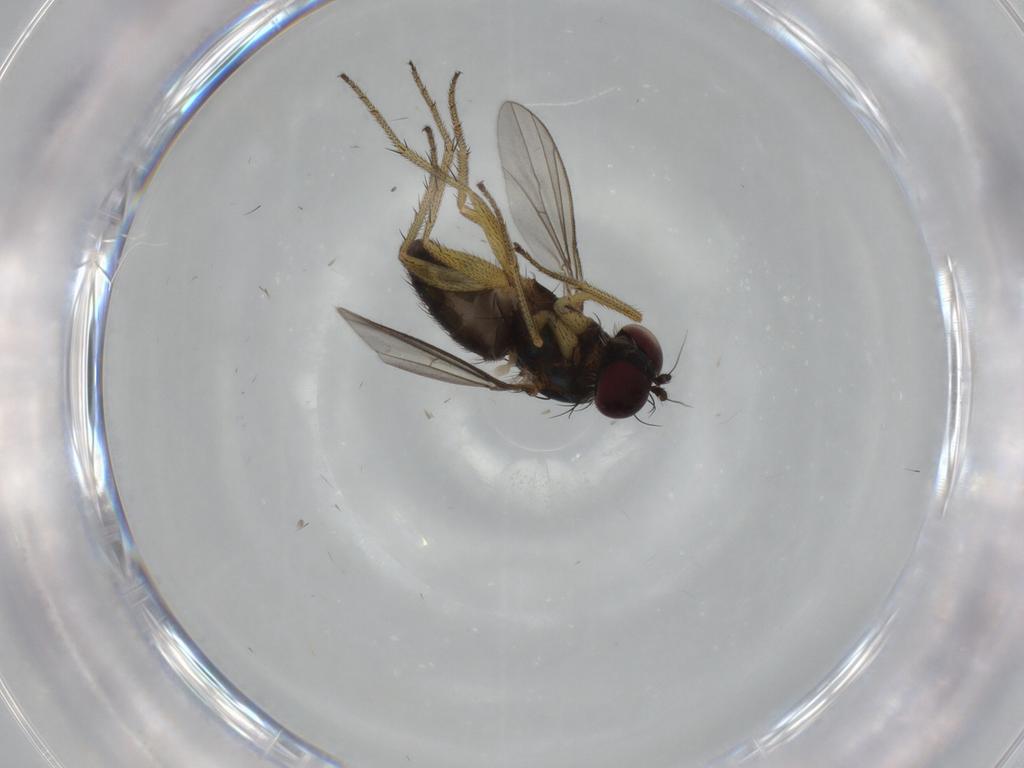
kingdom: Animalia
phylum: Arthropoda
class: Insecta
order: Diptera
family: Dolichopodidae
